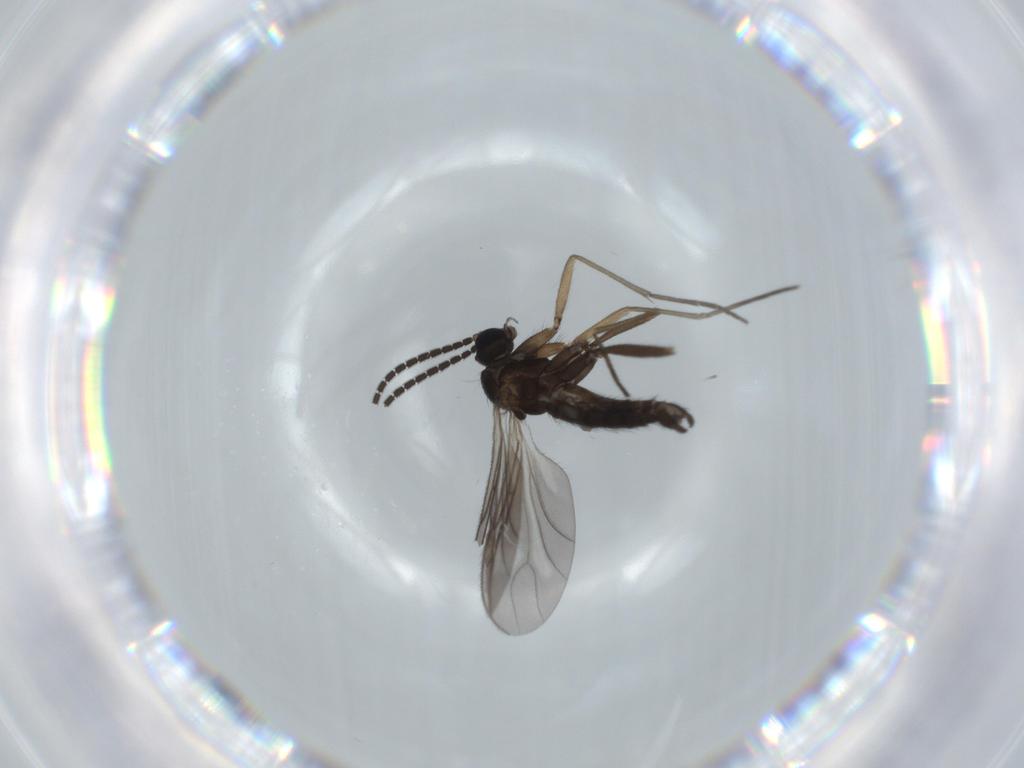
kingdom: Animalia
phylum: Arthropoda
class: Insecta
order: Diptera
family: Sciaridae
